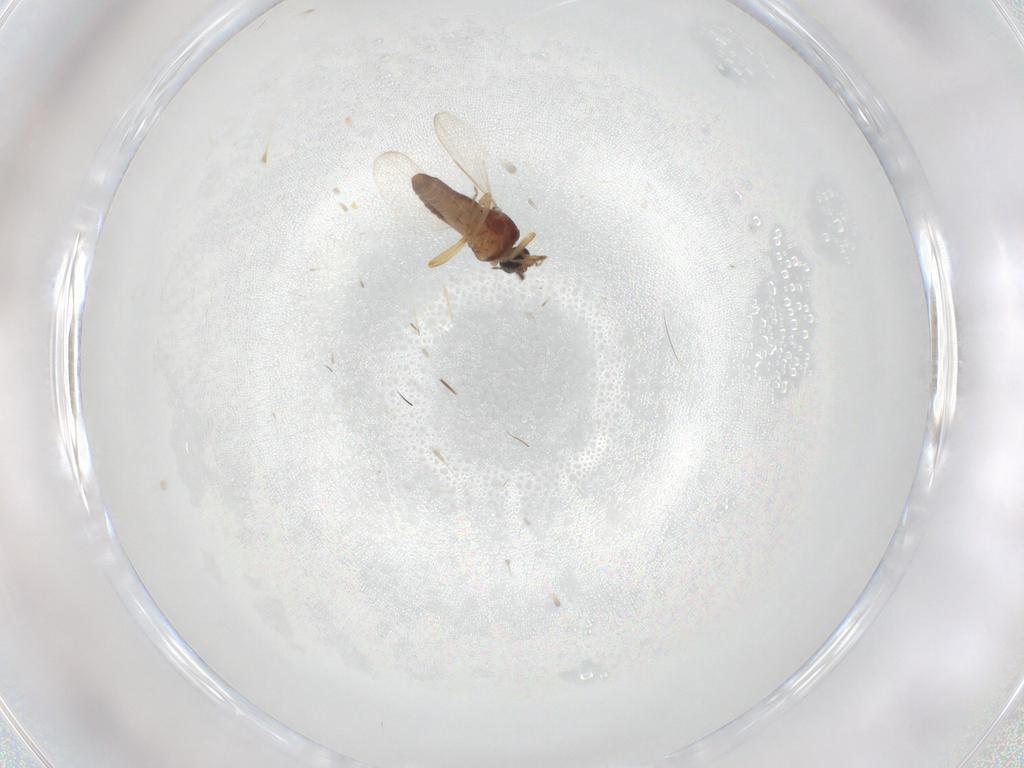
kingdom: Animalia
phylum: Arthropoda
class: Insecta
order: Diptera
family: Ceratopogonidae
